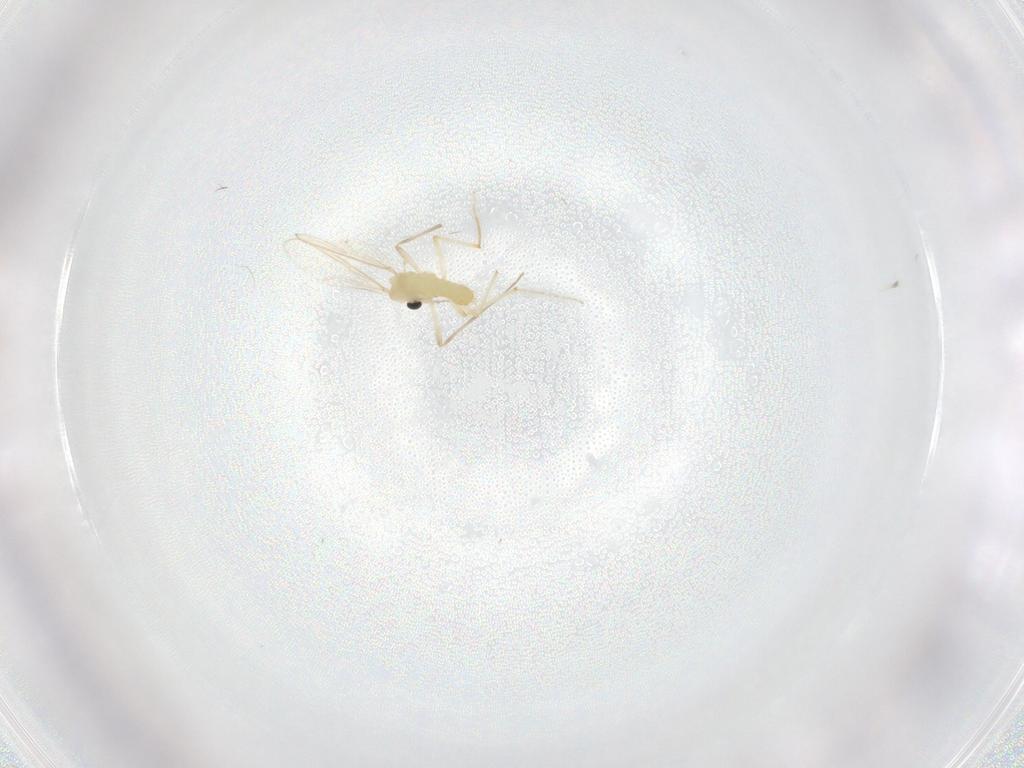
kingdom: Animalia
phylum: Arthropoda
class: Insecta
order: Diptera
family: Chironomidae
